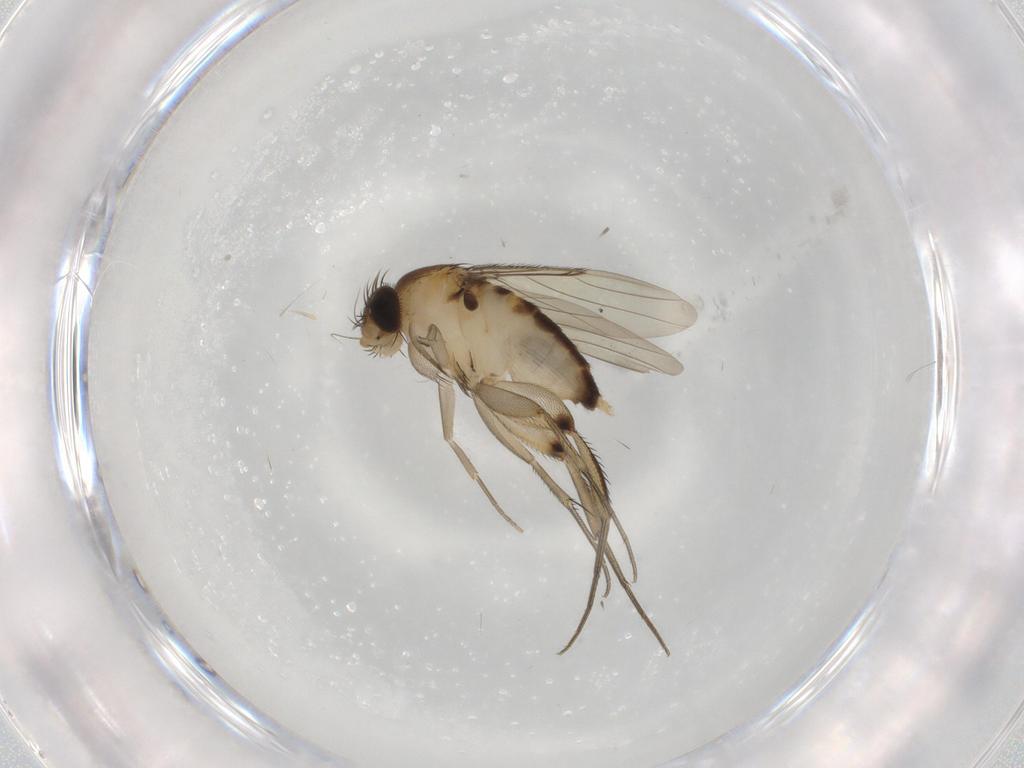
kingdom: Animalia
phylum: Arthropoda
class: Insecta
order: Diptera
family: Phoridae
